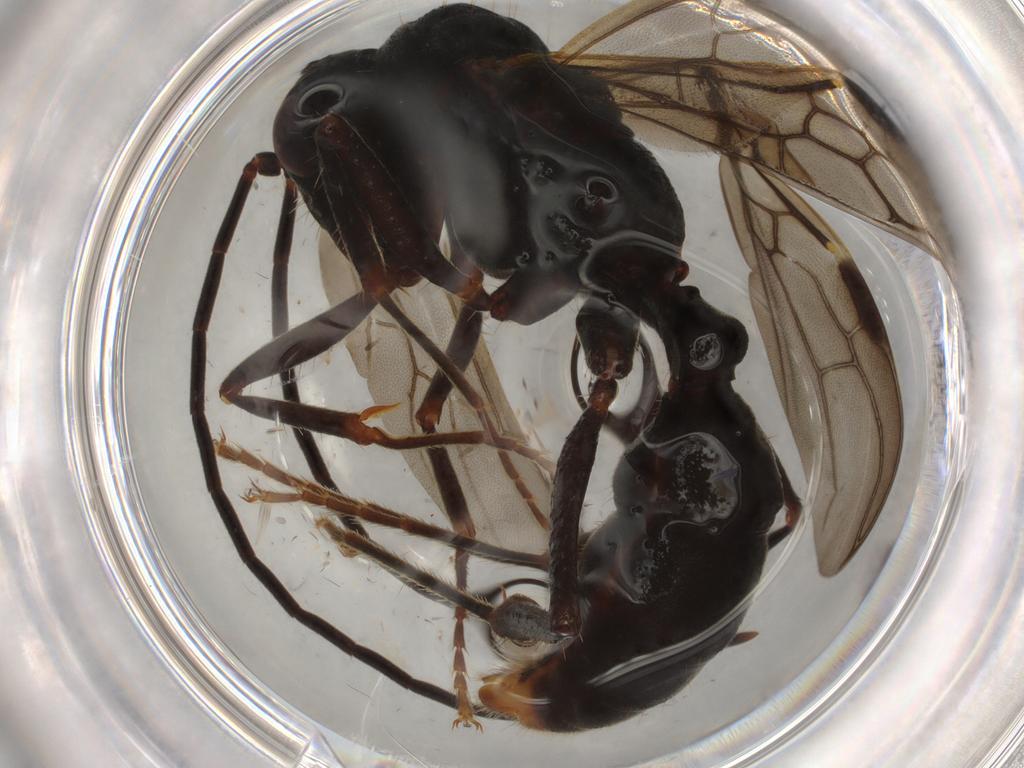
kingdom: Animalia
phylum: Arthropoda
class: Insecta
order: Hymenoptera
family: Formicidae
